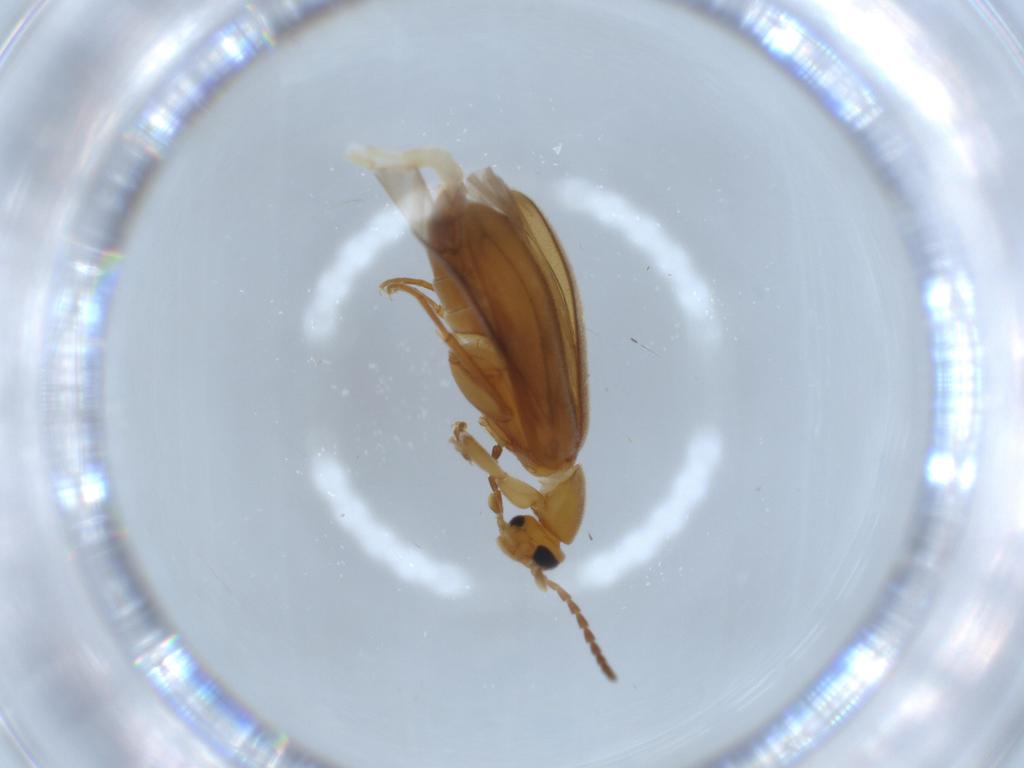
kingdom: Animalia
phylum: Arthropoda
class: Insecta
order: Coleoptera
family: Scraptiidae
